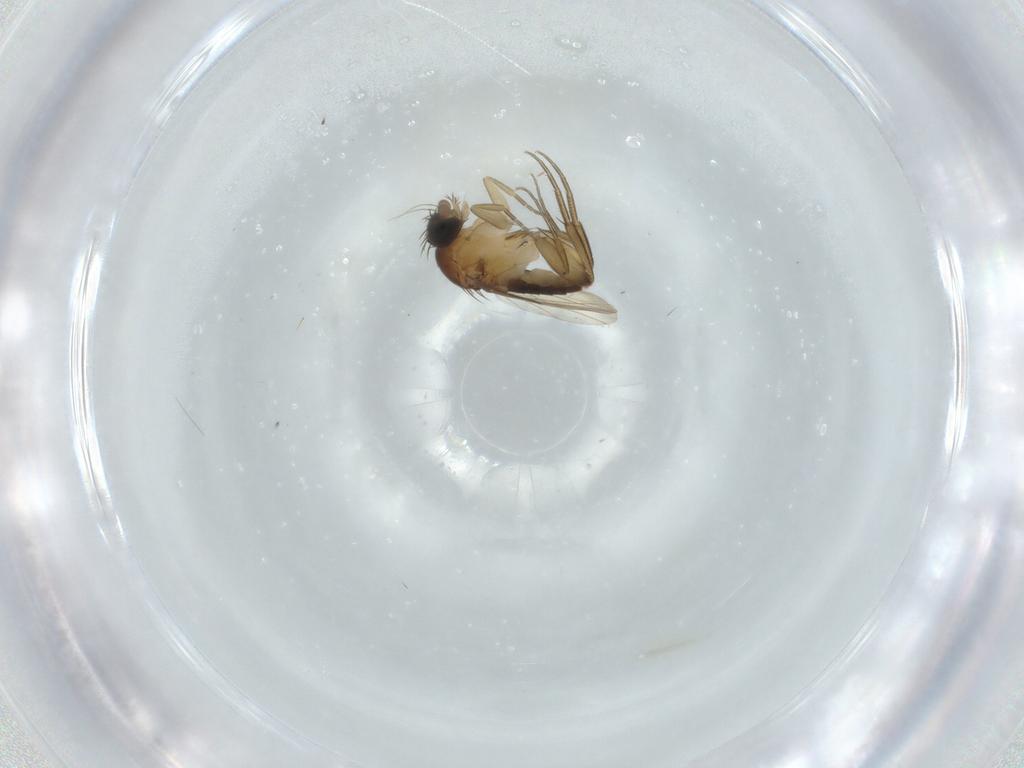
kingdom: Animalia
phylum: Arthropoda
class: Insecta
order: Diptera
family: Phoridae
